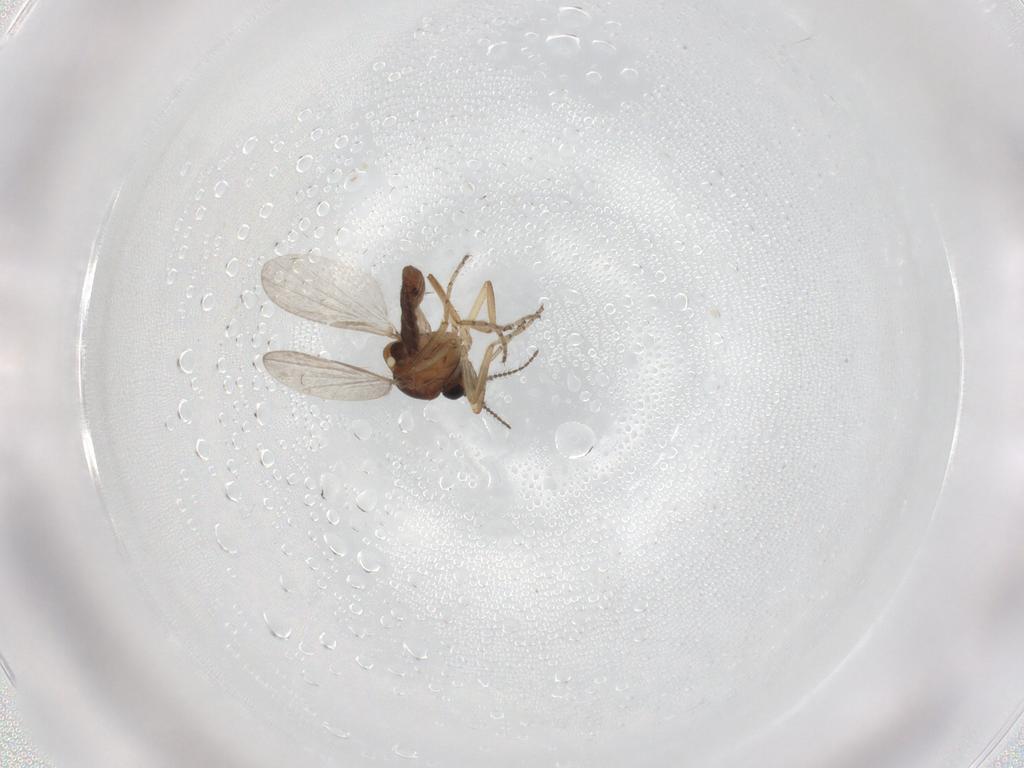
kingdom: Animalia
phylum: Arthropoda
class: Insecta
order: Diptera
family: Ceratopogonidae
